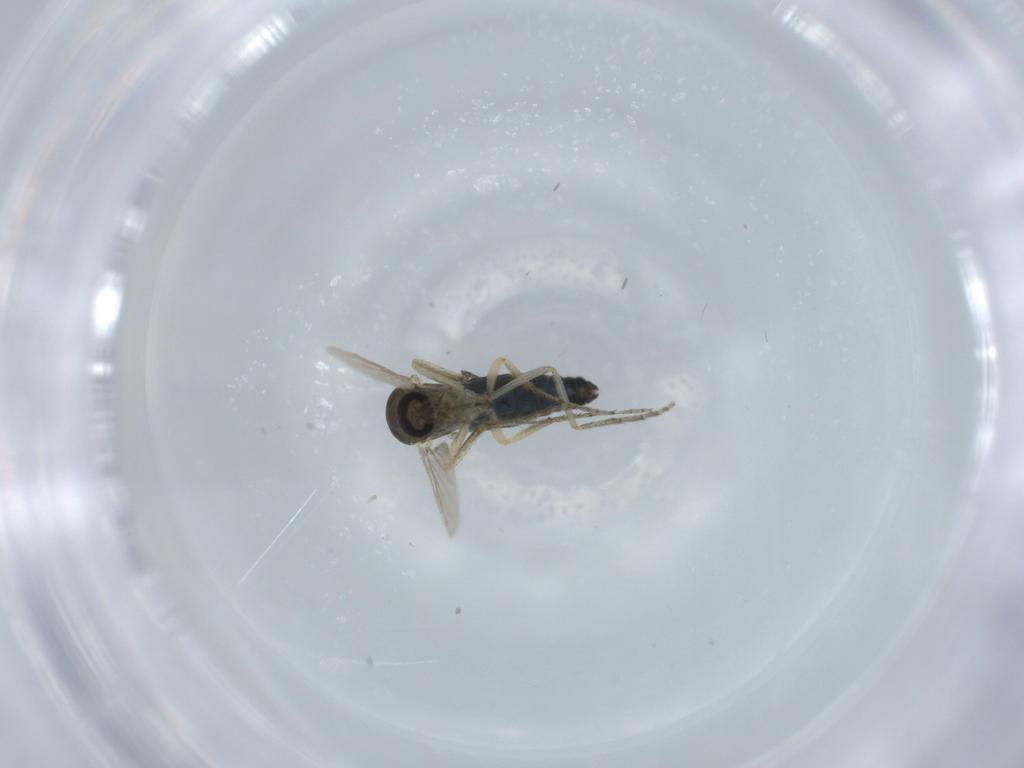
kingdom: Animalia
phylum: Arthropoda
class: Insecta
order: Diptera
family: Ceratopogonidae
